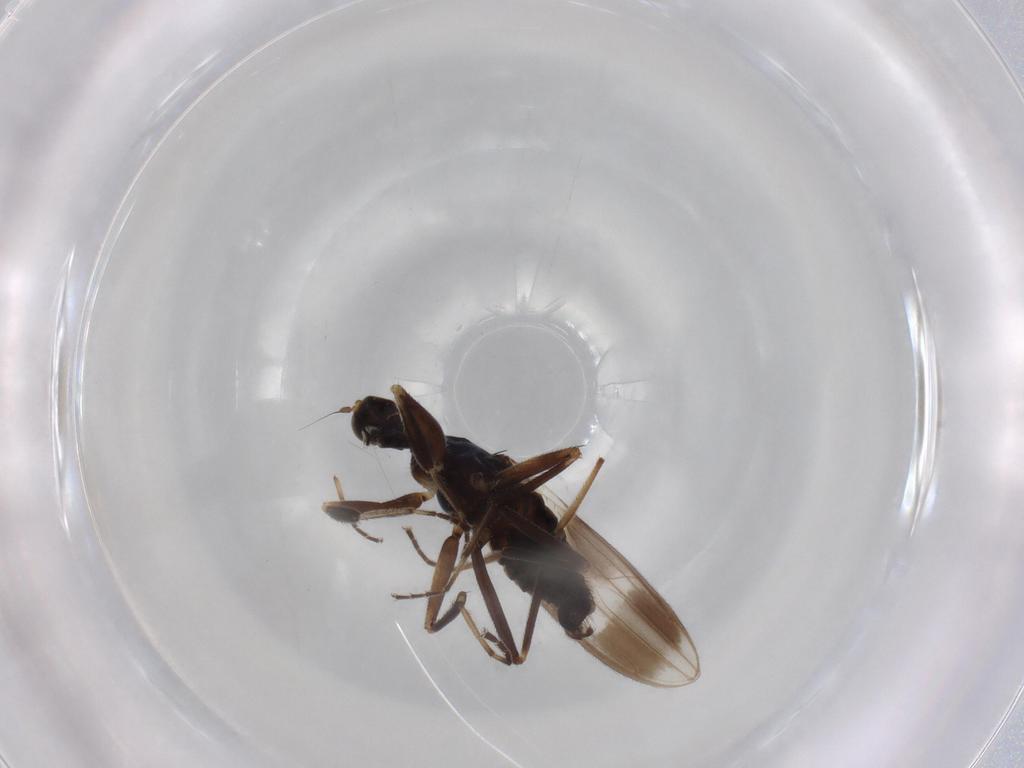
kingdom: Animalia
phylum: Arthropoda
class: Insecta
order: Diptera
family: Hybotidae
